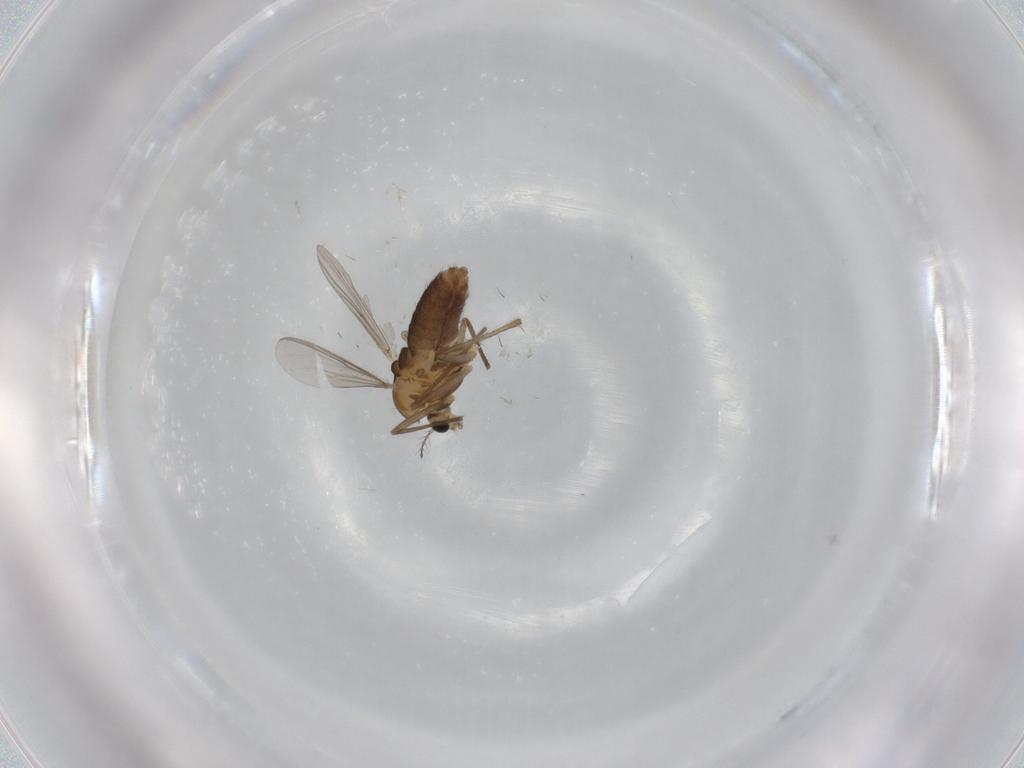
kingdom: Animalia
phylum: Arthropoda
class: Insecta
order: Diptera
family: Chironomidae
